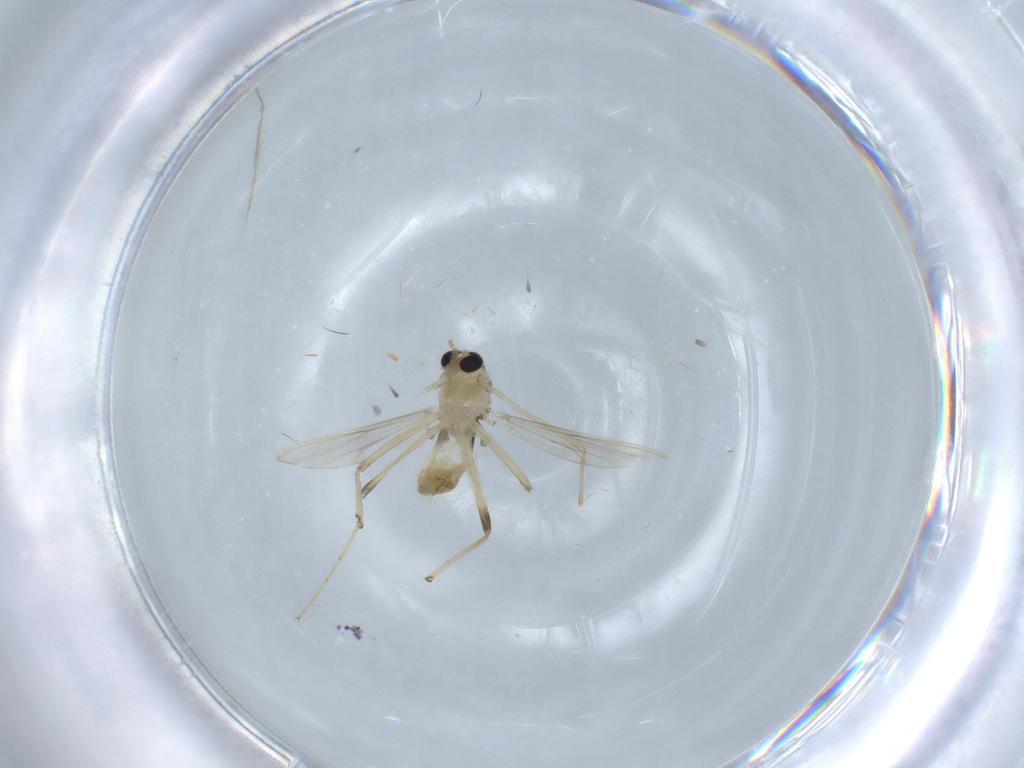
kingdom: Animalia
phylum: Arthropoda
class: Insecta
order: Diptera
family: Chironomidae
